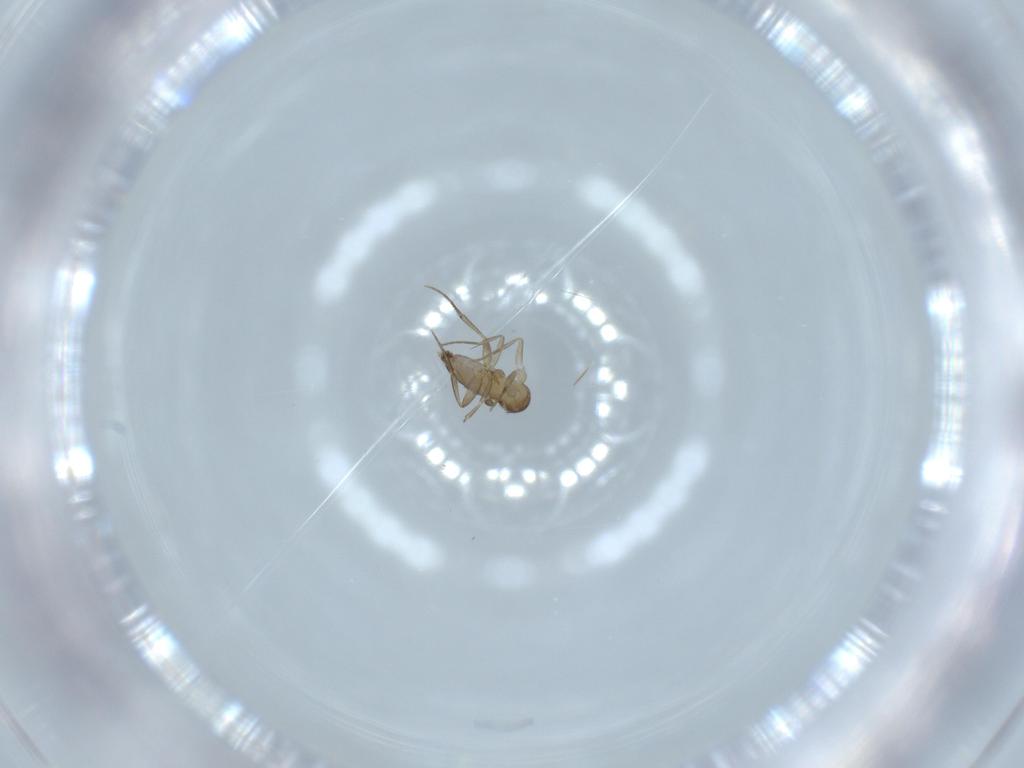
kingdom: Animalia
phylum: Arthropoda
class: Insecta
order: Diptera
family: Phoridae
